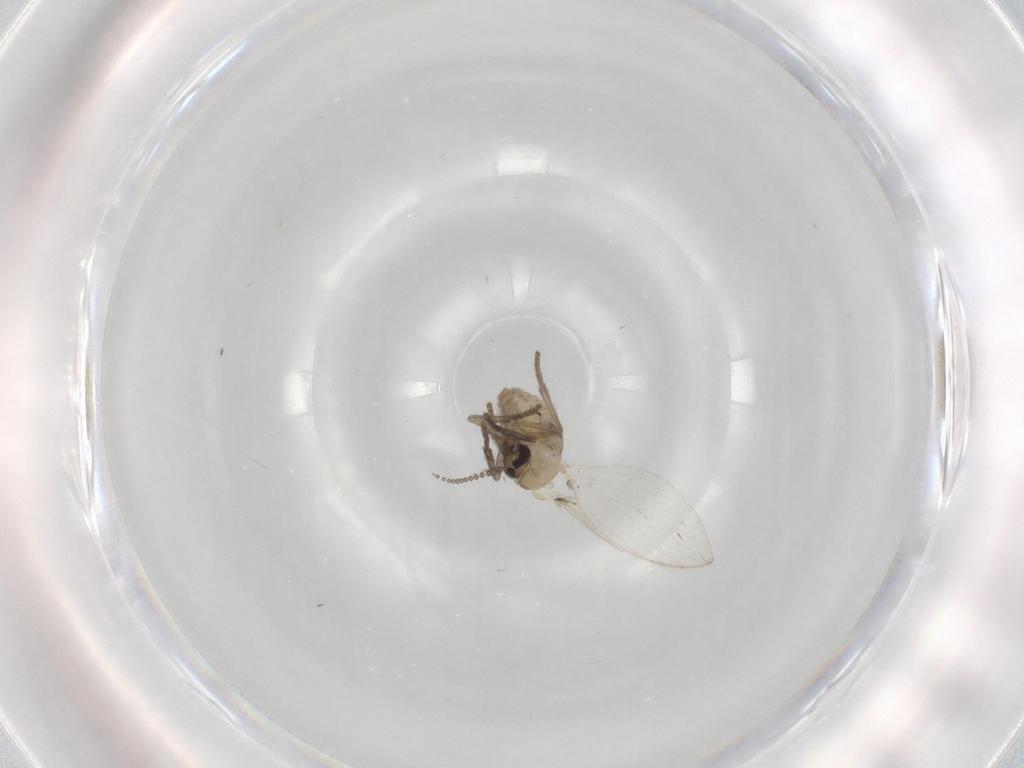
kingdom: Animalia
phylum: Arthropoda
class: Insecta
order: Diptera
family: Psychodidae
